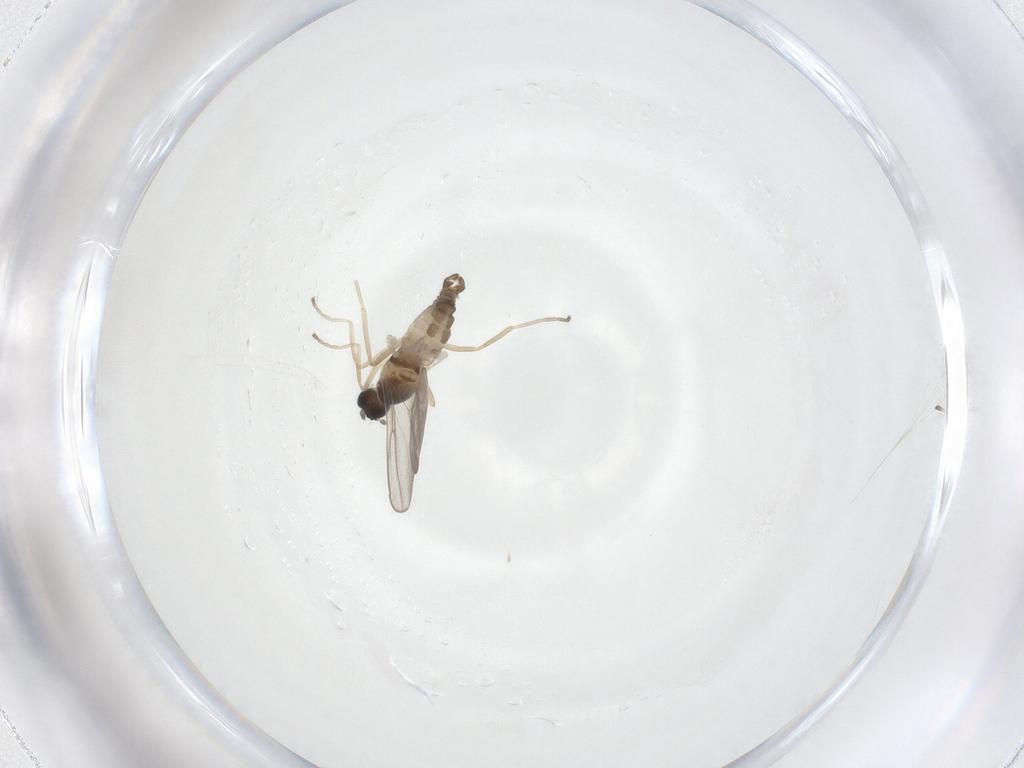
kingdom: Animalia
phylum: Arthropoda
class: Insecta
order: Diptera
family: Cecidomyiidae
